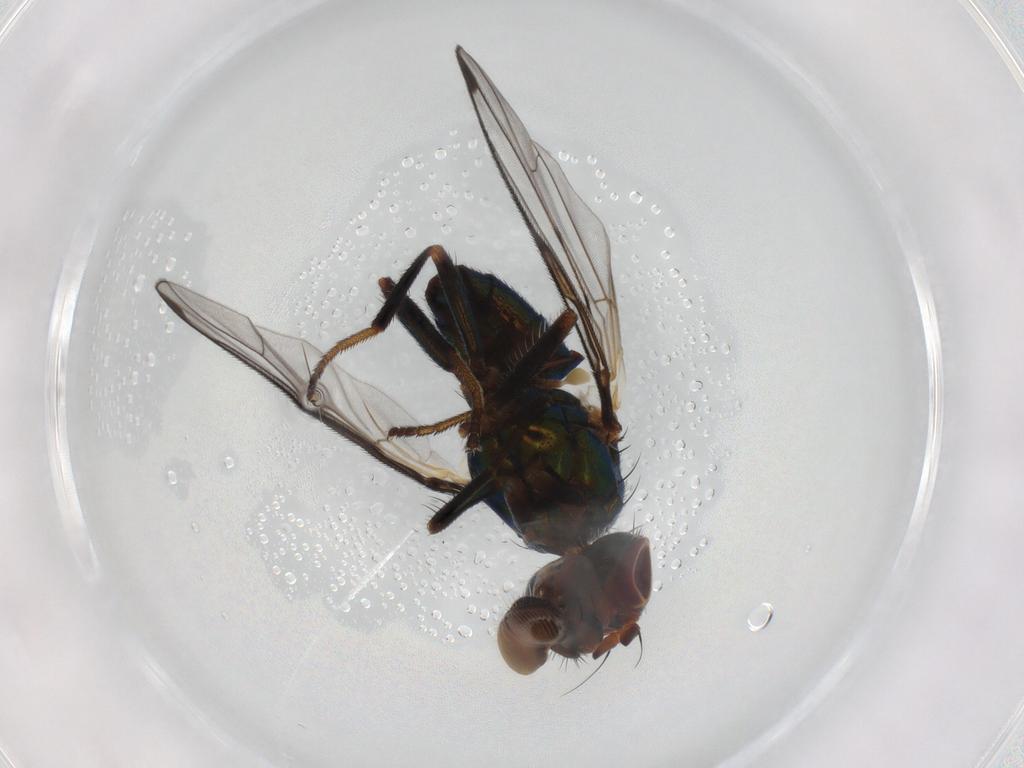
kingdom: Animalia
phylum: Arthropoda
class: Insecta
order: Diptera
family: Platystomatidae
